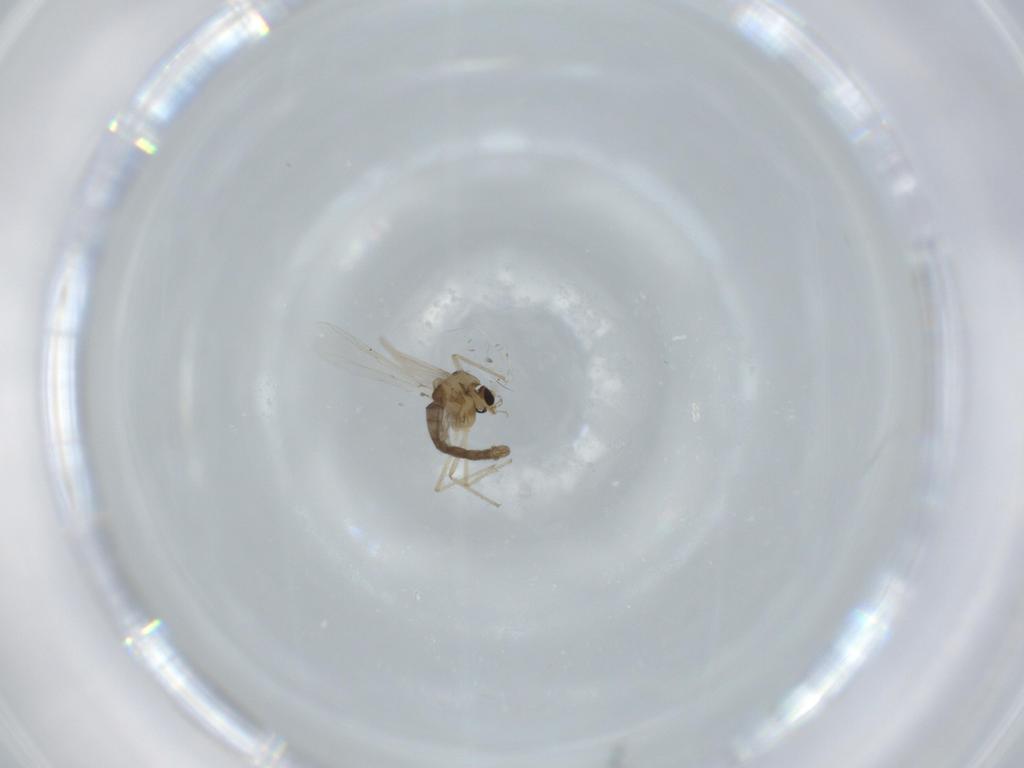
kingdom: Animalia
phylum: Arthropoda
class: Insecta
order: Diptera
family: Chironomidae
